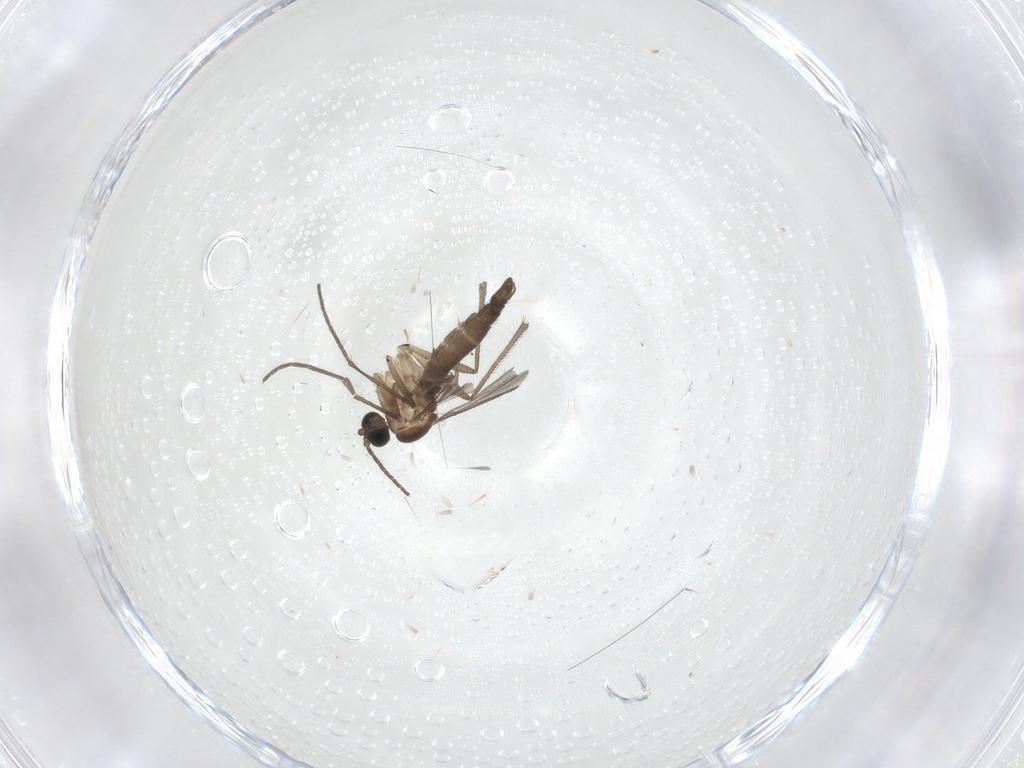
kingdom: Animalia
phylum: Arthropoda
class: Insecta
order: Diptera
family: Sciaridae
